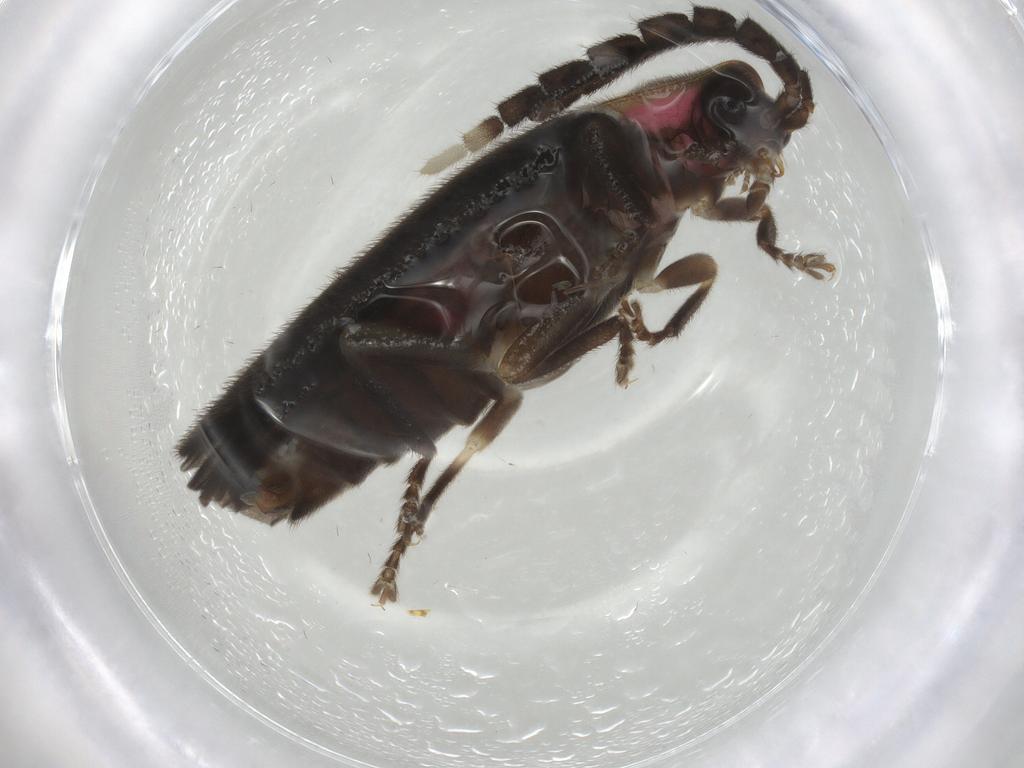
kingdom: Animalia
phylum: Arthropoda
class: Insecta
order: Coleoptera
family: Lampyridae
